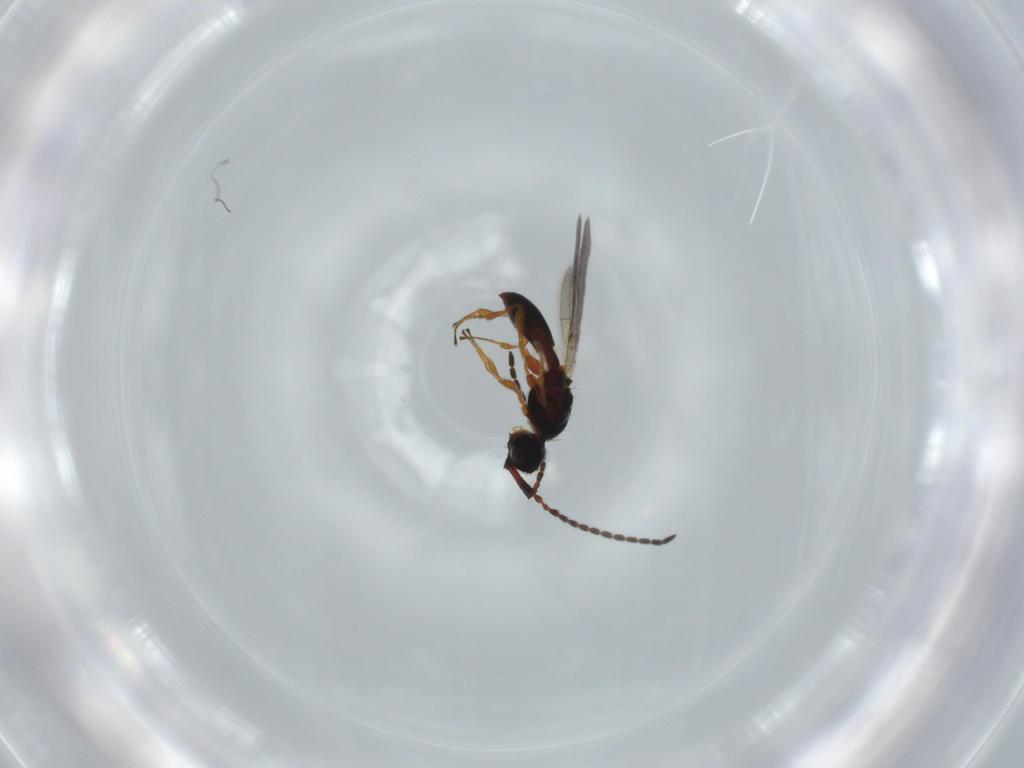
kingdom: Animalia
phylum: Arthropoda
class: Insecta
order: Hymenoptera
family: Diapriidae
